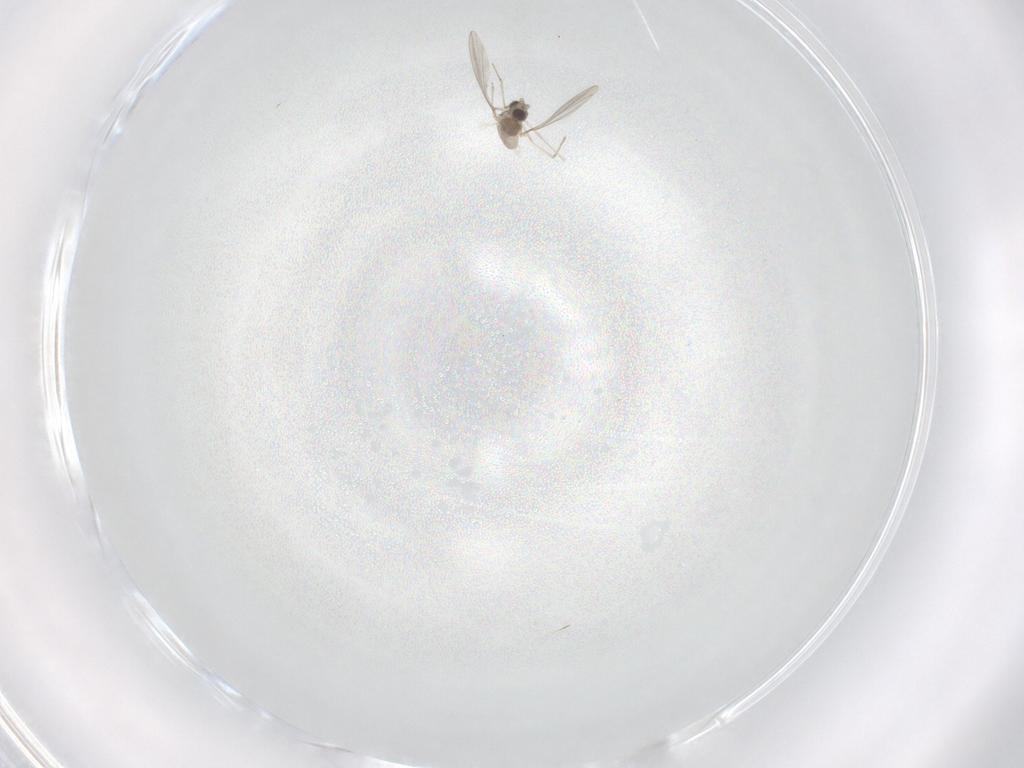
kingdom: Animalia
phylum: Arthropoda
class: Insecta
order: Diptera
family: Cecidomyiidae
